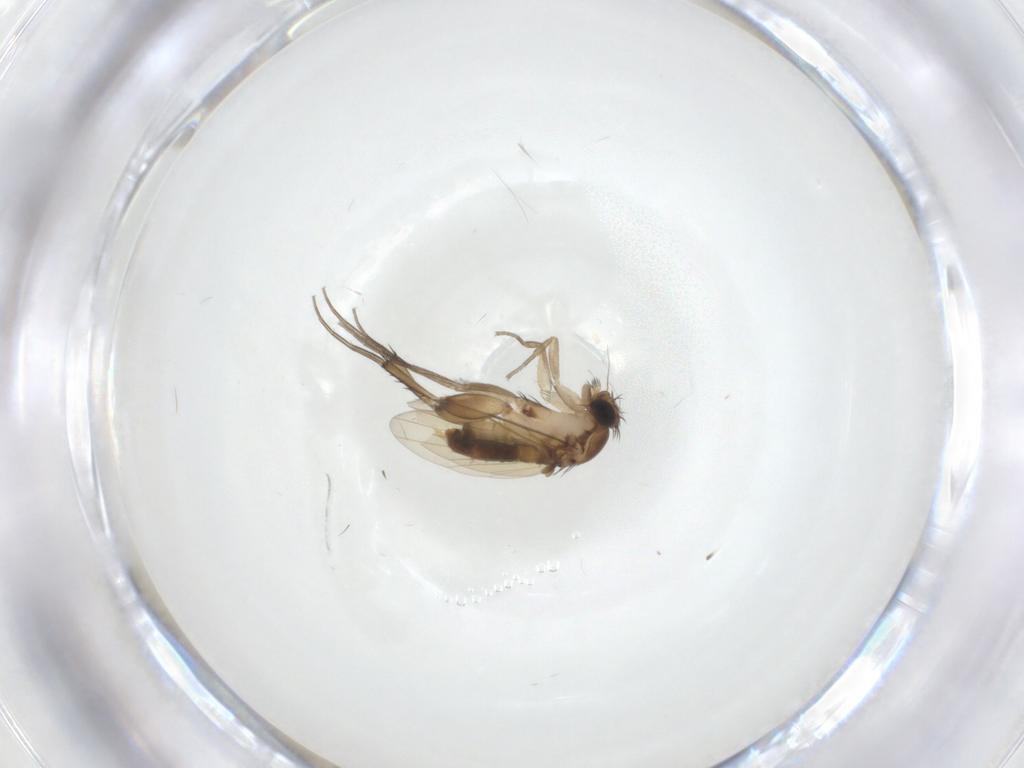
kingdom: Animalia
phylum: Arthropoda
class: Insecta
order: Diptera
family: Phoridae
